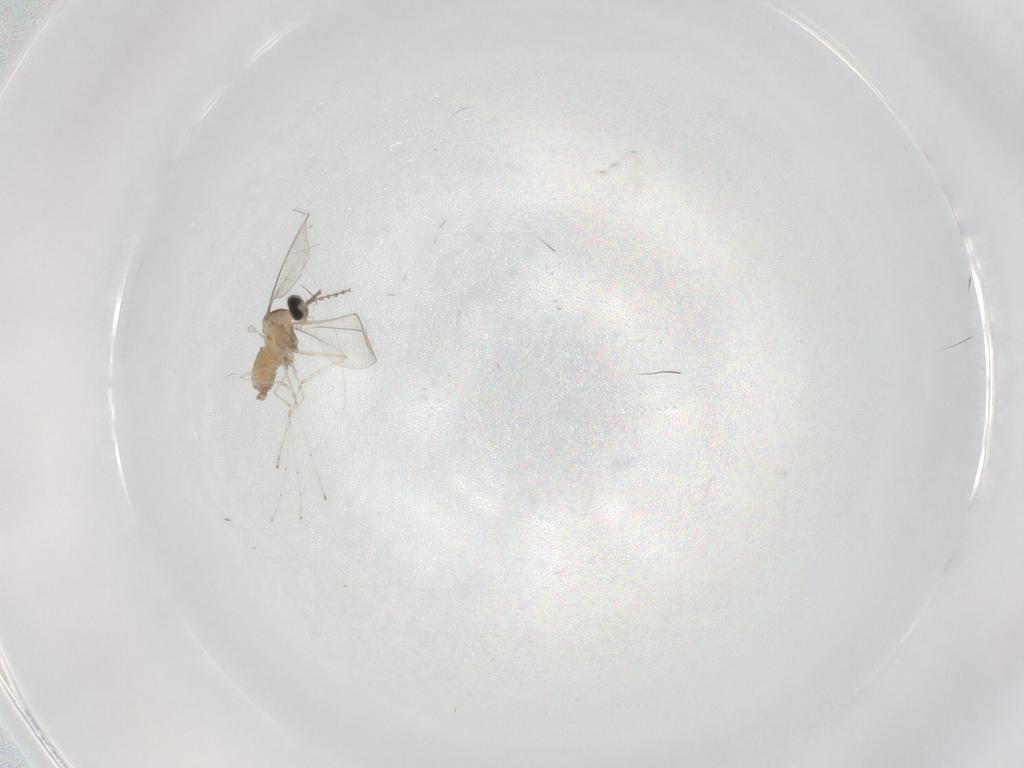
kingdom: Animalia
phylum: Arthropoda
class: Insecta
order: Diptera
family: Cecidomyiidae
